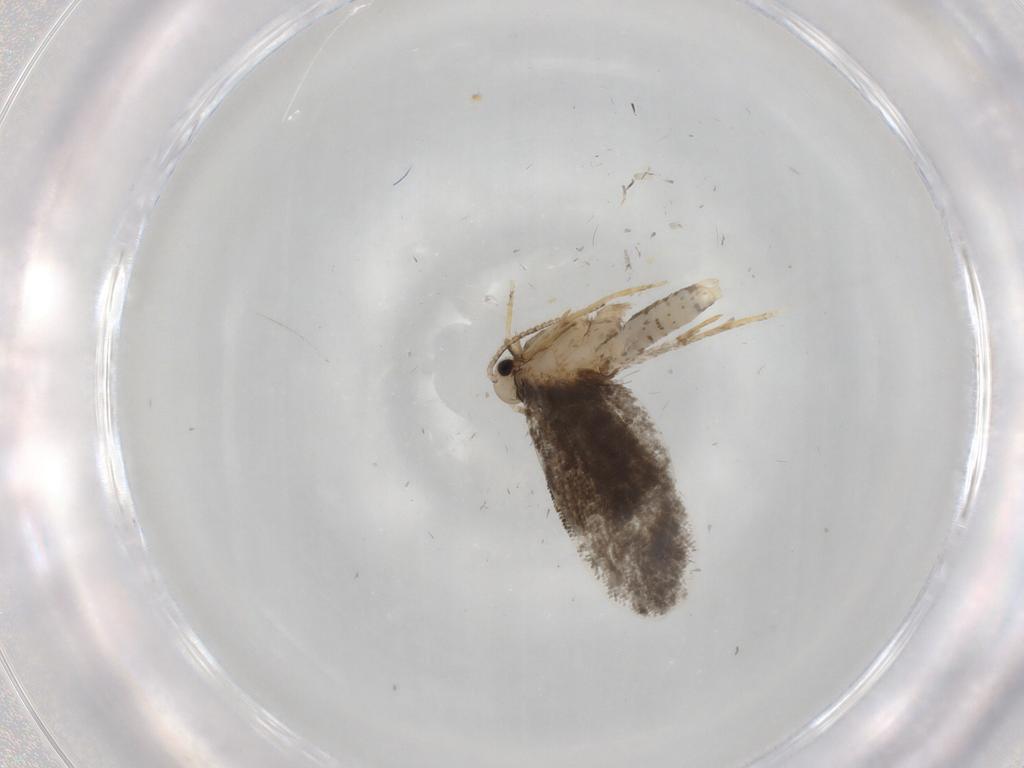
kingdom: Animalia
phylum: Arthropoda
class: Insecta
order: Lepidoptera
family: Psychidae
